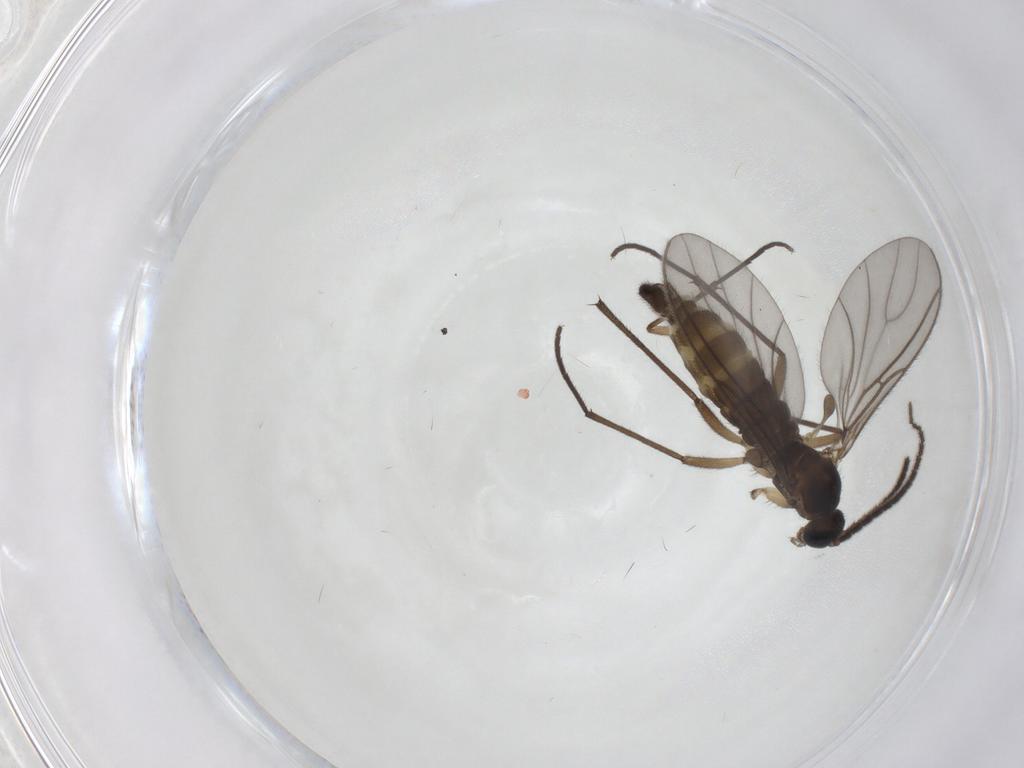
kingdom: Animalia
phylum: Arthropoda
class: Insecta
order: Diptera
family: Sciaridae
